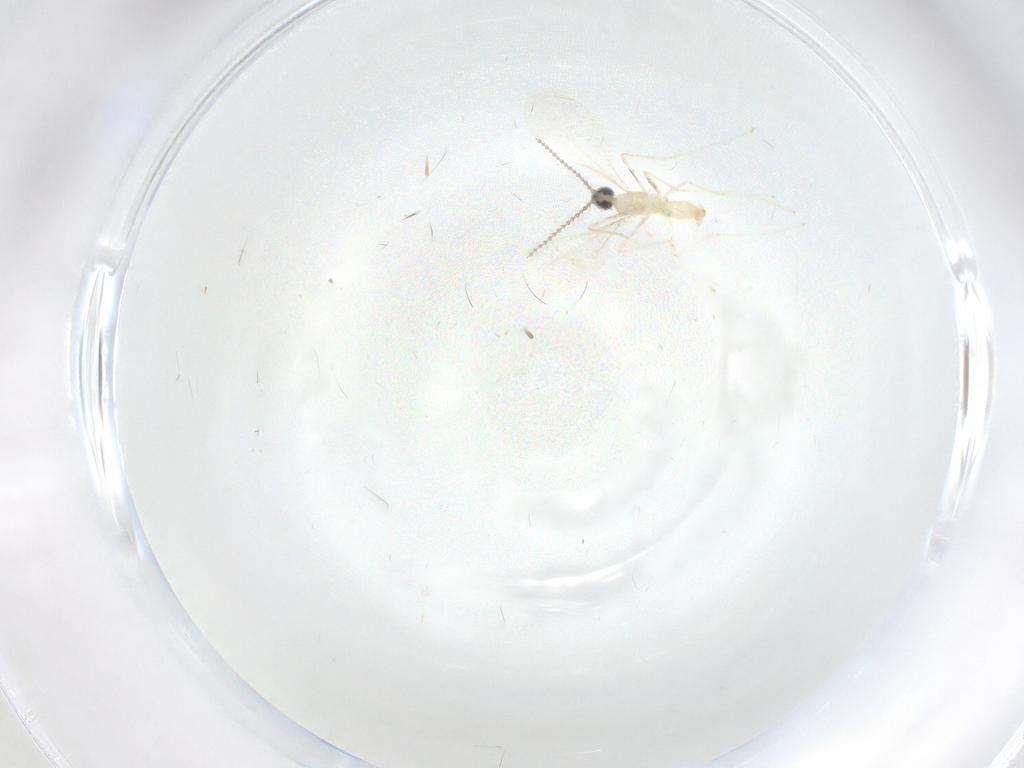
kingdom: Animalia
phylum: Arthropoda
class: Insecta
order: Diptera
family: Cecidomyiidae
